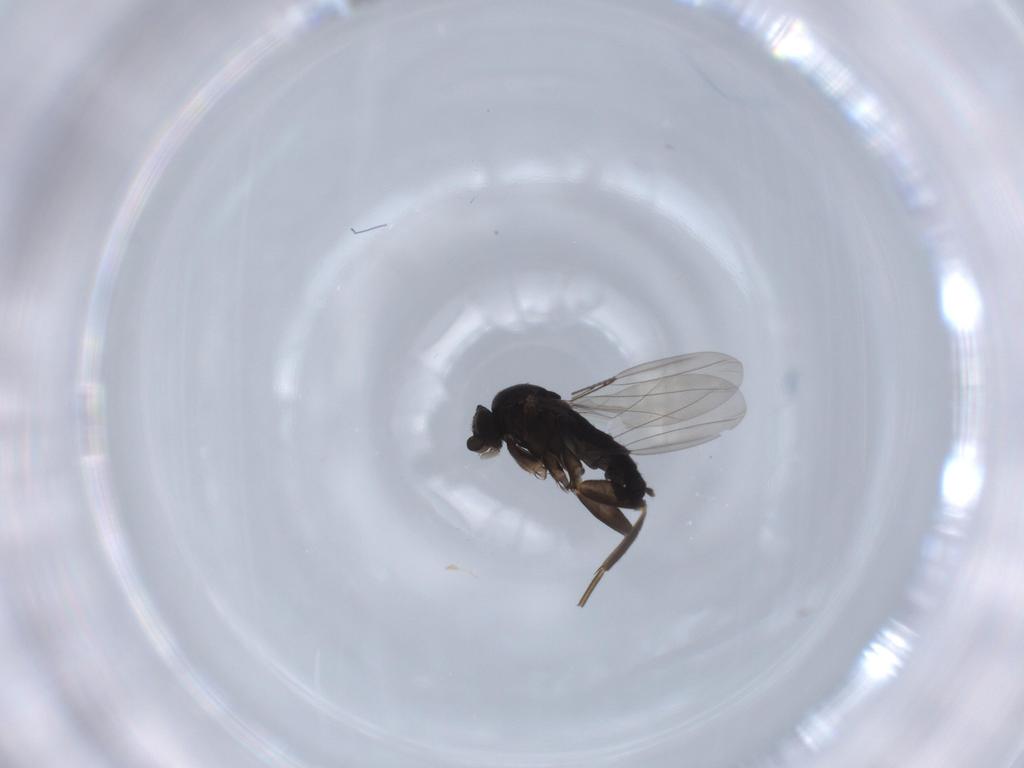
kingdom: Animalia
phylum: Arthropoda
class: Insecta
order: Diptera
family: Phoridae
